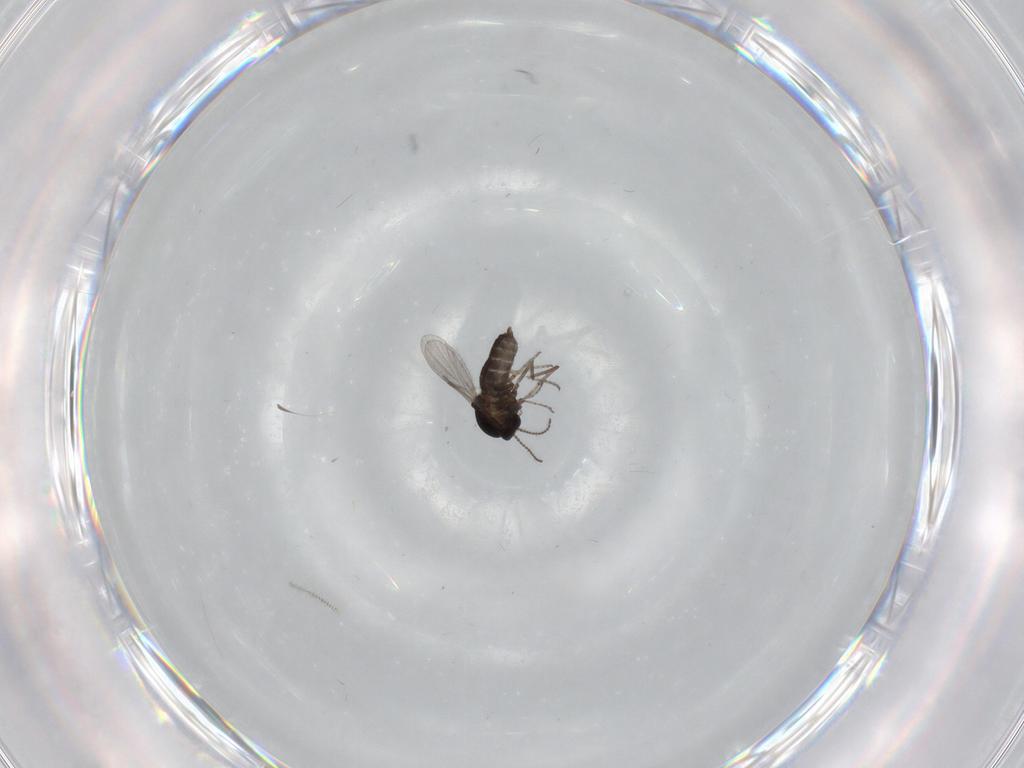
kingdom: Animalia
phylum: Arthropoda
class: Insecta
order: Diptera
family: Ceratopogonidae
